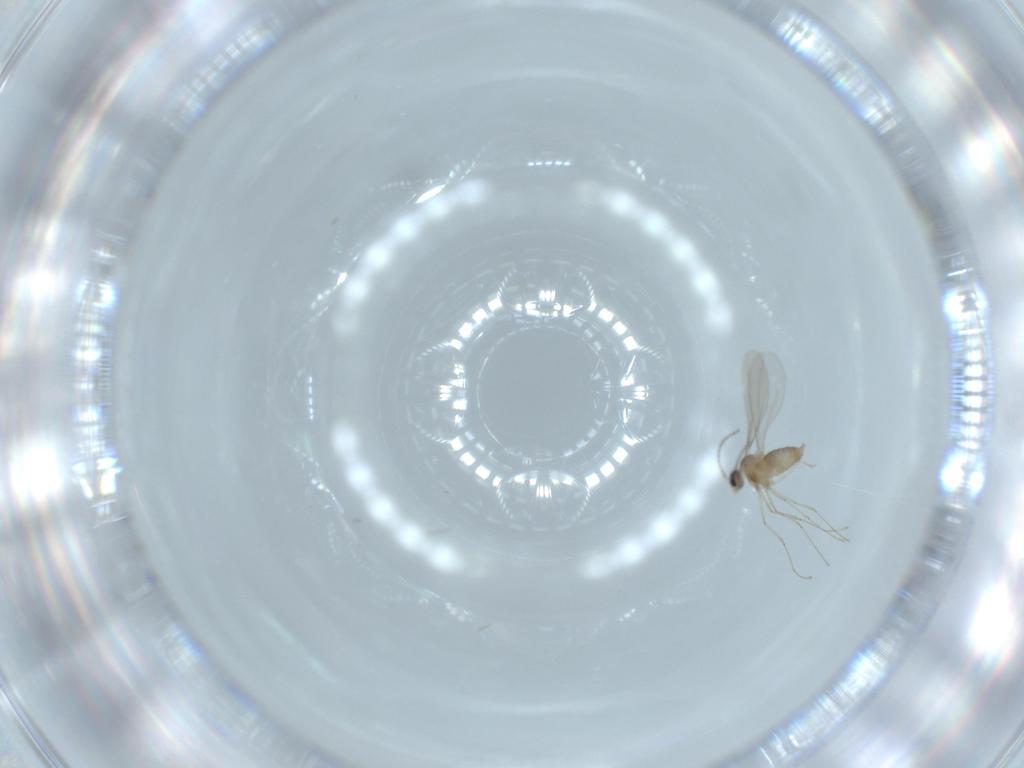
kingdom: Animalia
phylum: Arthropoda
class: Insecta
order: Diptera
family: Cecidomyiidae
